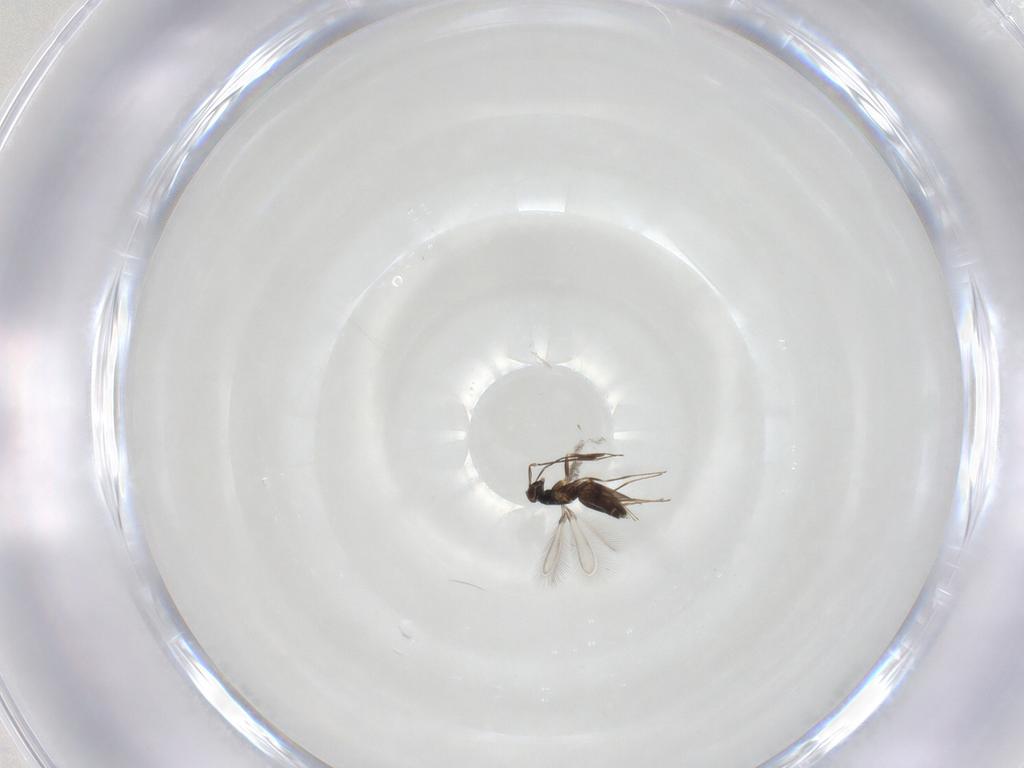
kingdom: Animalia
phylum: Arthropoda
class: Insecta
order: Hymenoptera
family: Mymaridae
